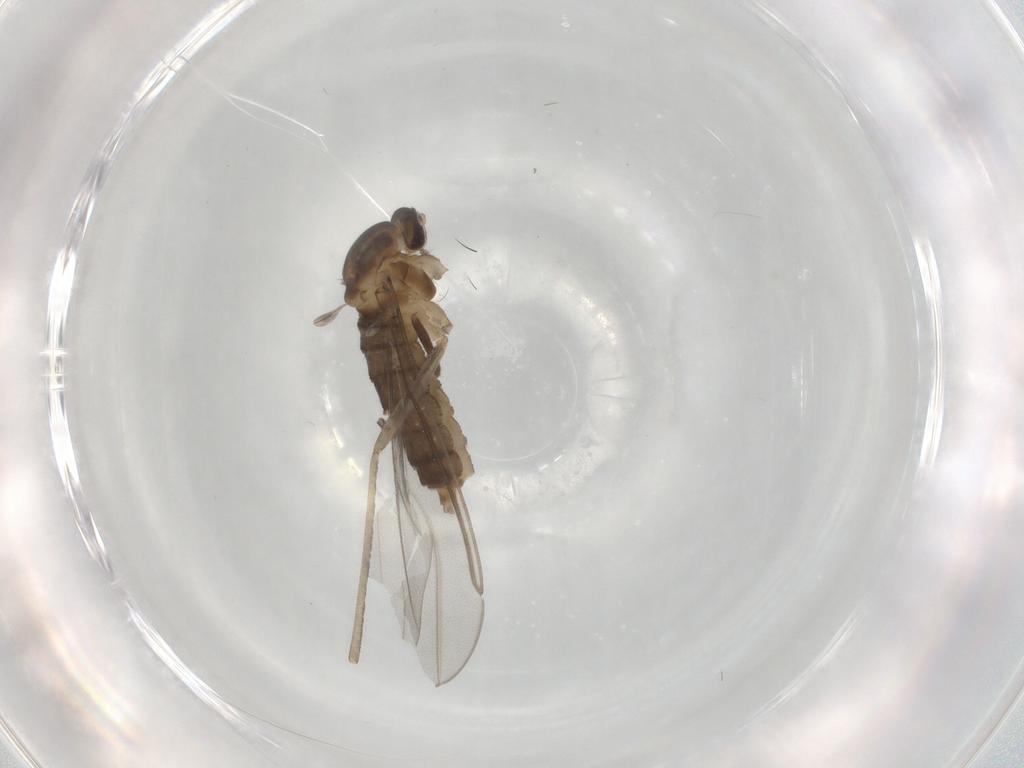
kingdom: Animalia
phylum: Arthropoda
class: Insecta
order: Diptera
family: Cecidomyiidae
